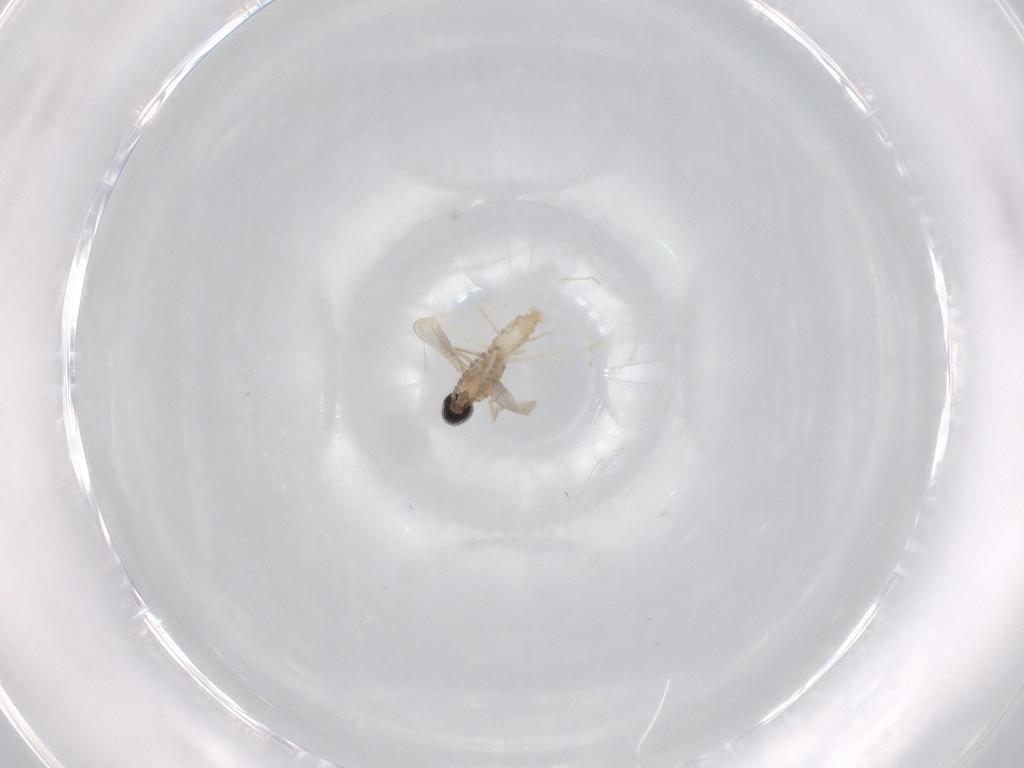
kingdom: Animalia
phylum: Arthropoda
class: Insecta
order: Diptera
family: Cecidomyiidae
